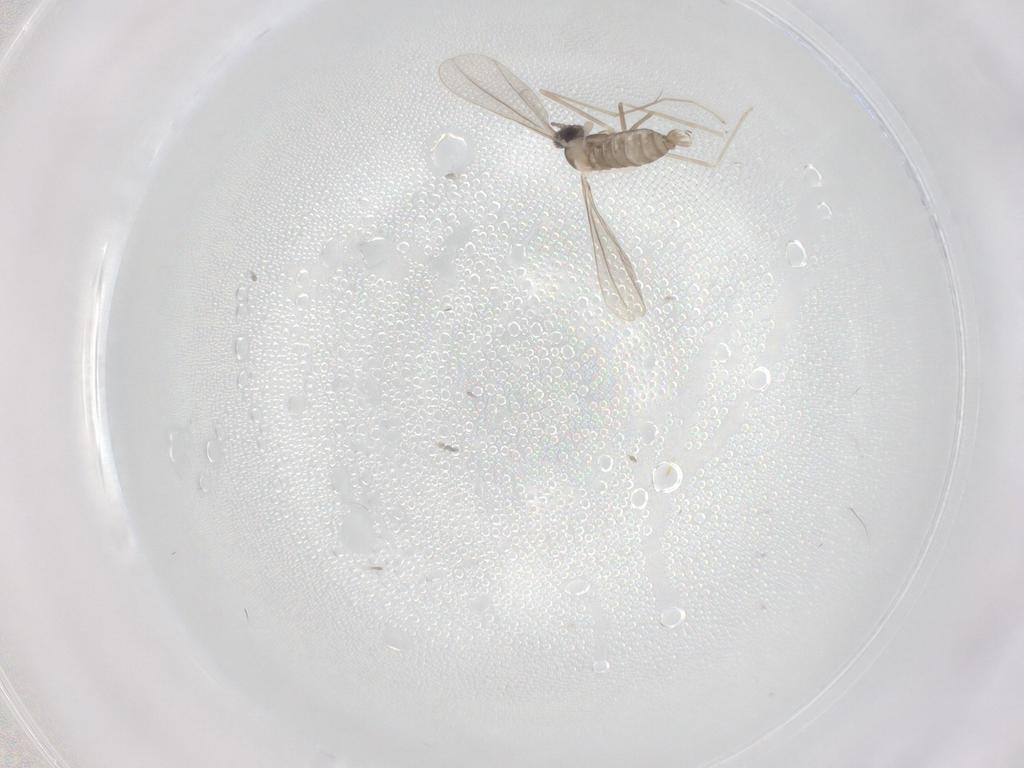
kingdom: Animalia
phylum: Arthropoda
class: Insecta
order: Diptera
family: Cecidomyiidae
